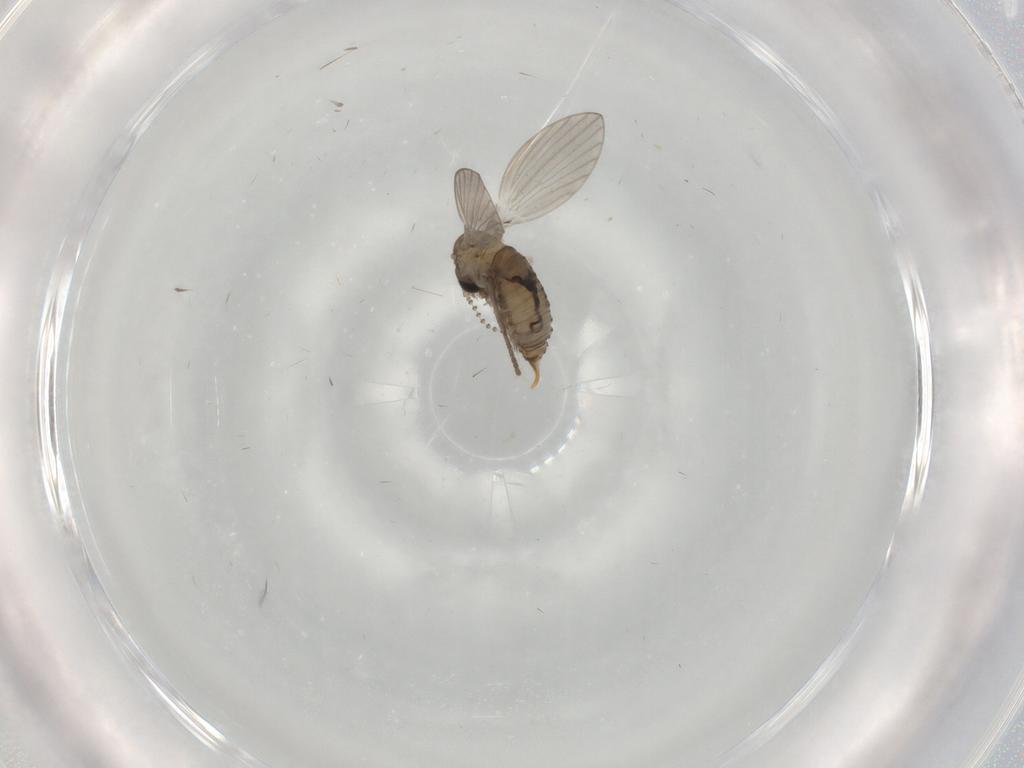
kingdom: Animalia
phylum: Arthropoda
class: Insecta
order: Diptera
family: Psychodidae
